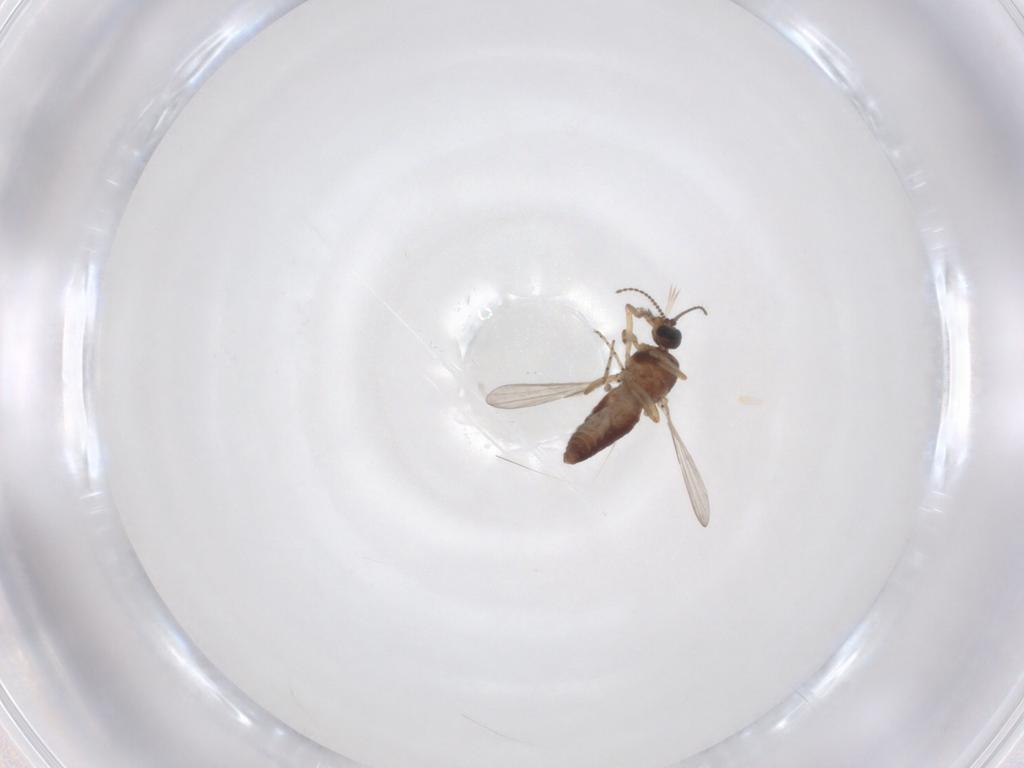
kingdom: Animalia
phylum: Arthropoda
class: Insecta
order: Diptera
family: Ceratopogonidae
